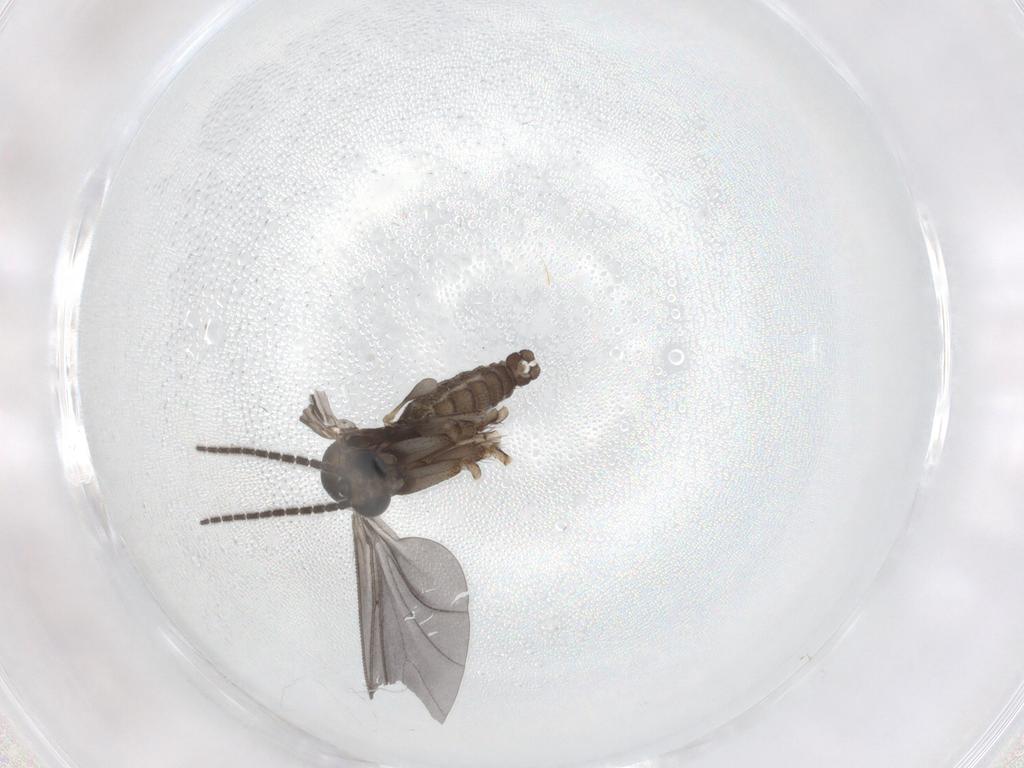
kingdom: Animalia
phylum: Arthropoda
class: Insecta
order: Diptera
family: Sciaridae
